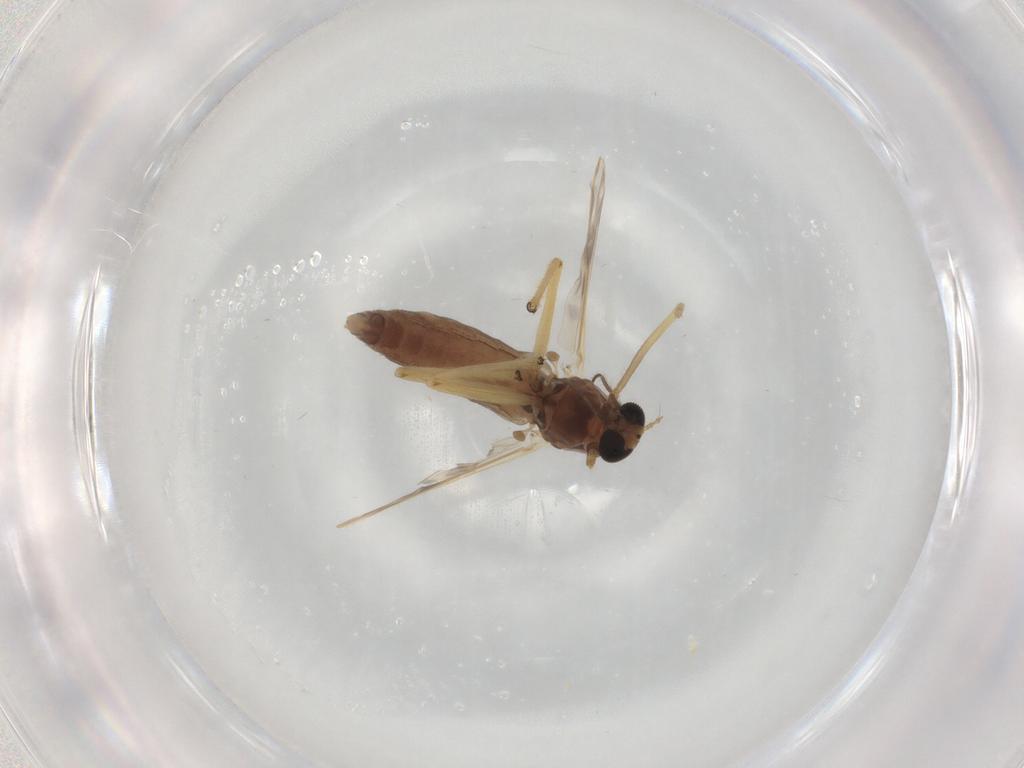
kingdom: Animalia
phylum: Arthropoda
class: Insecta
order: Diptera
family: Chironomidae
